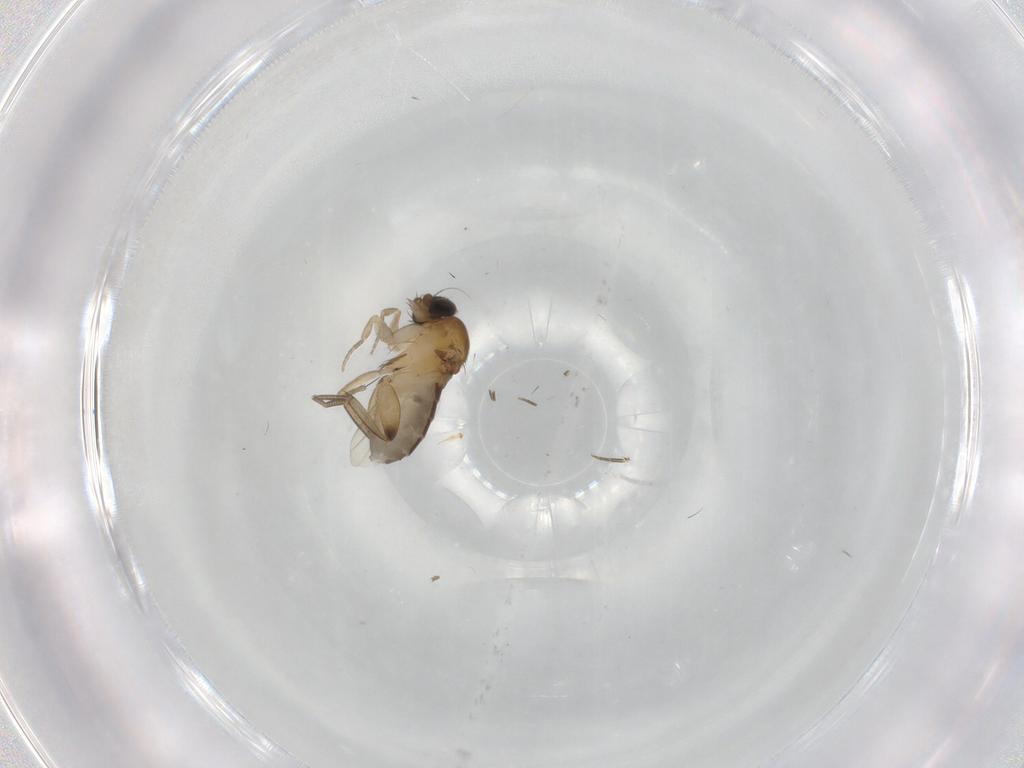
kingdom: Animalia
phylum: Arthropoda
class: Insecta
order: Diptera
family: Phoridae
